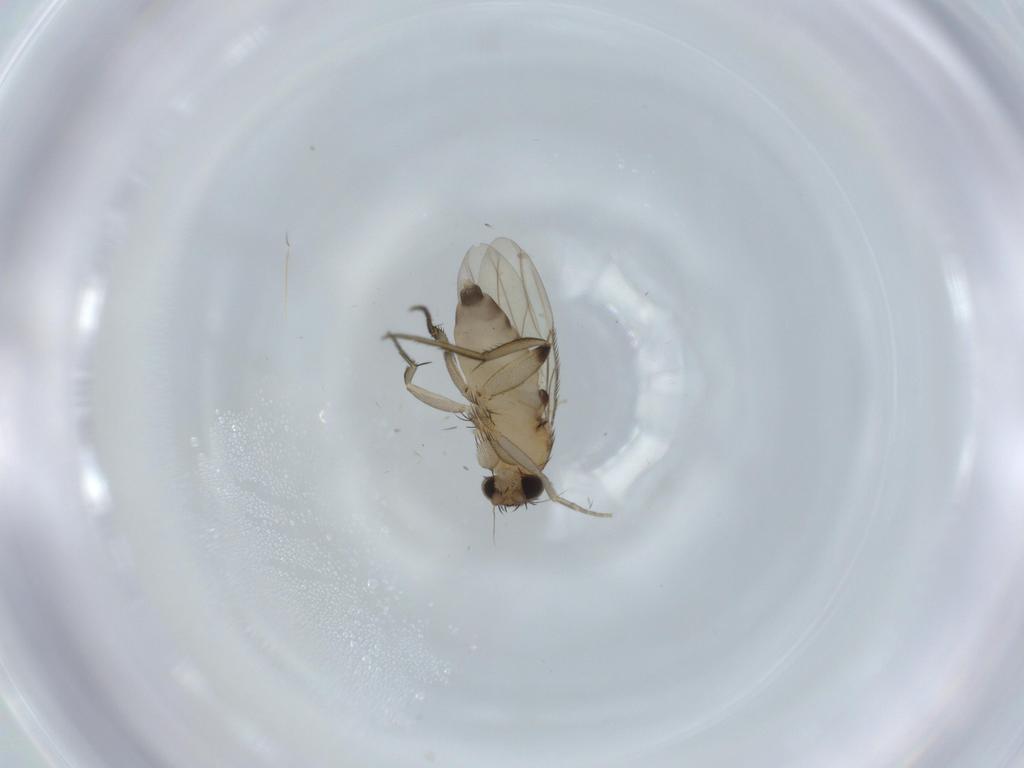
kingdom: Animalia
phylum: Arthropoda
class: Insecta
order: Diptera
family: Phoridae
